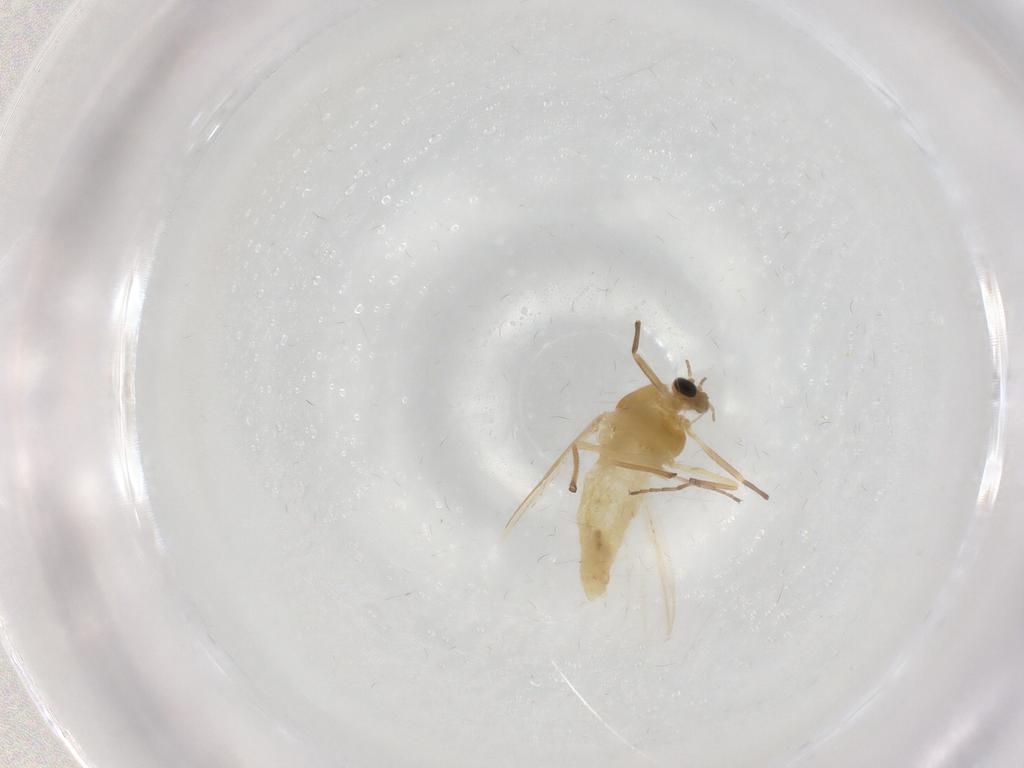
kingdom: Animalia
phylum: Arthropoda
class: Insecta
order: Diptera
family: Chironomidae
